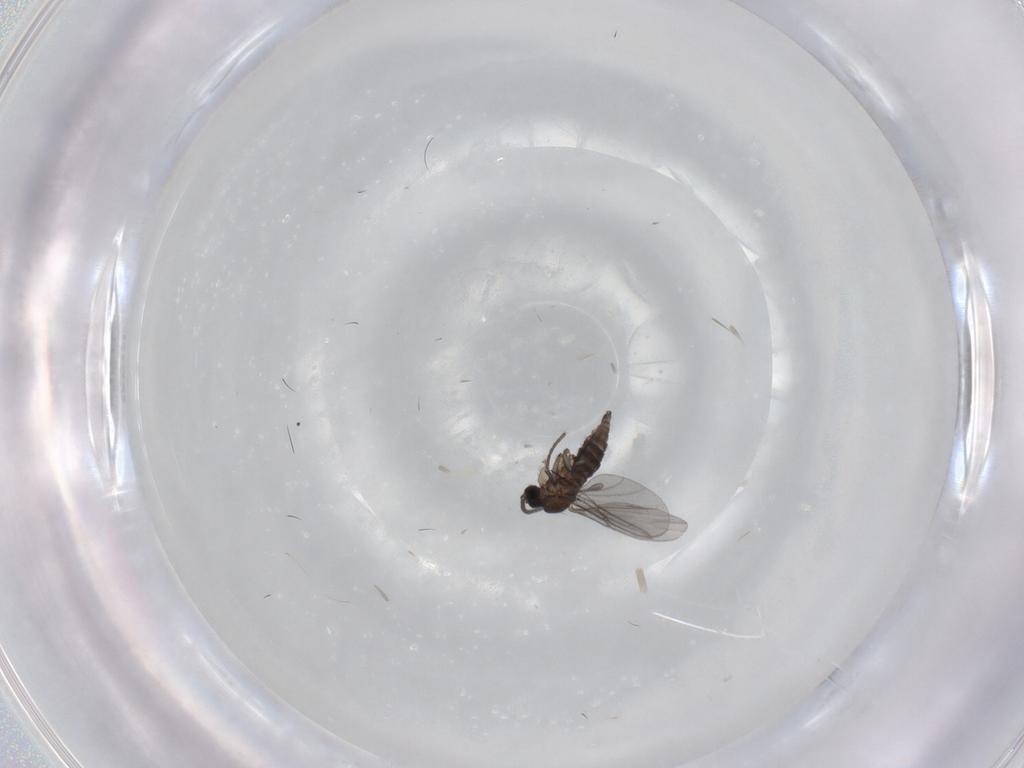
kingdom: Animalia
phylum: Arthropoda
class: Insecta
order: Diptera
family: Sciaridae
